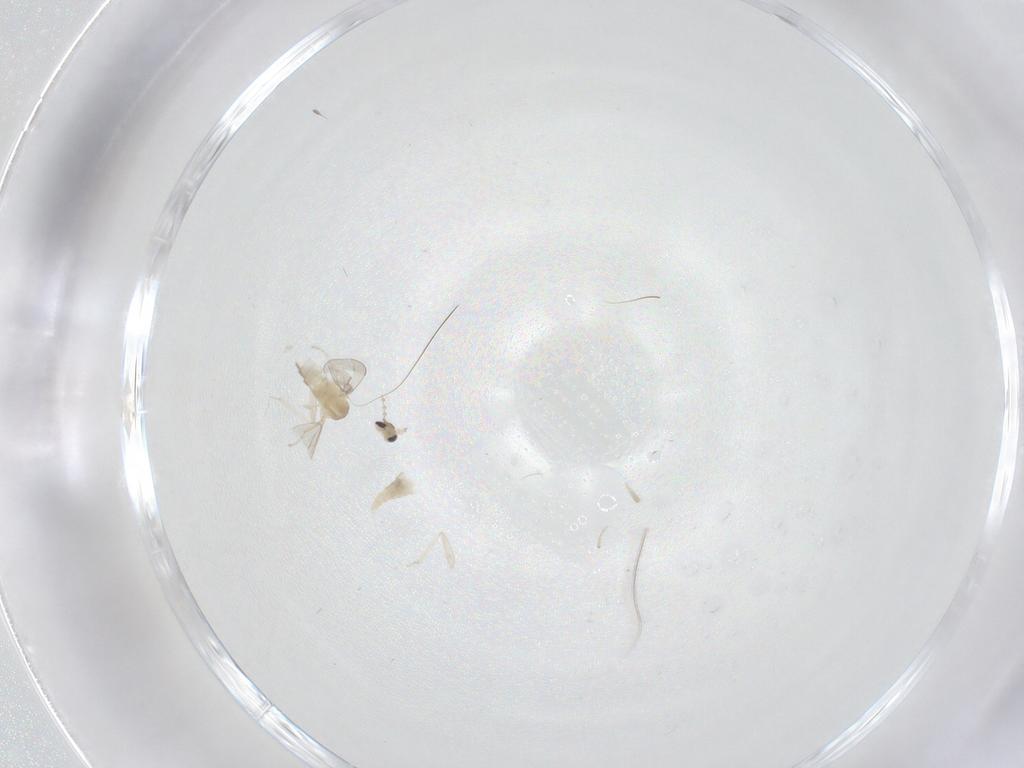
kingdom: Animalia
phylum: Arthropoda
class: Insecta
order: Diptera
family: Cecidomyiidae
